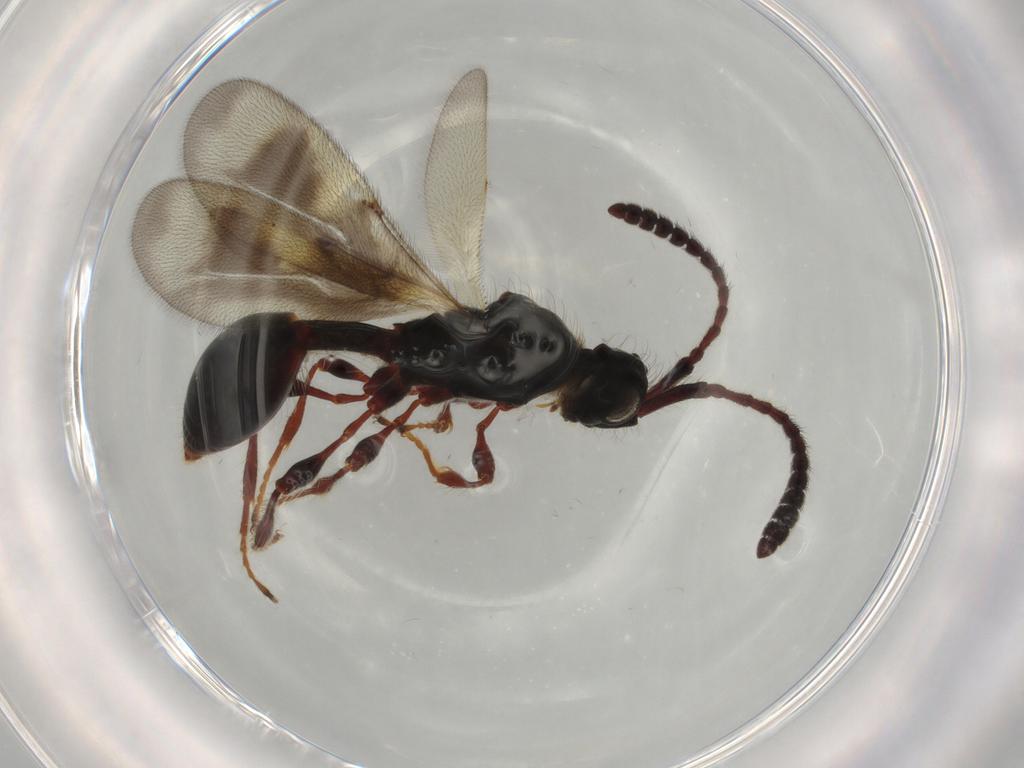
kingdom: Animalia
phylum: Arthropoda
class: Insecta
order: Hymenoptera
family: Diapriidae
